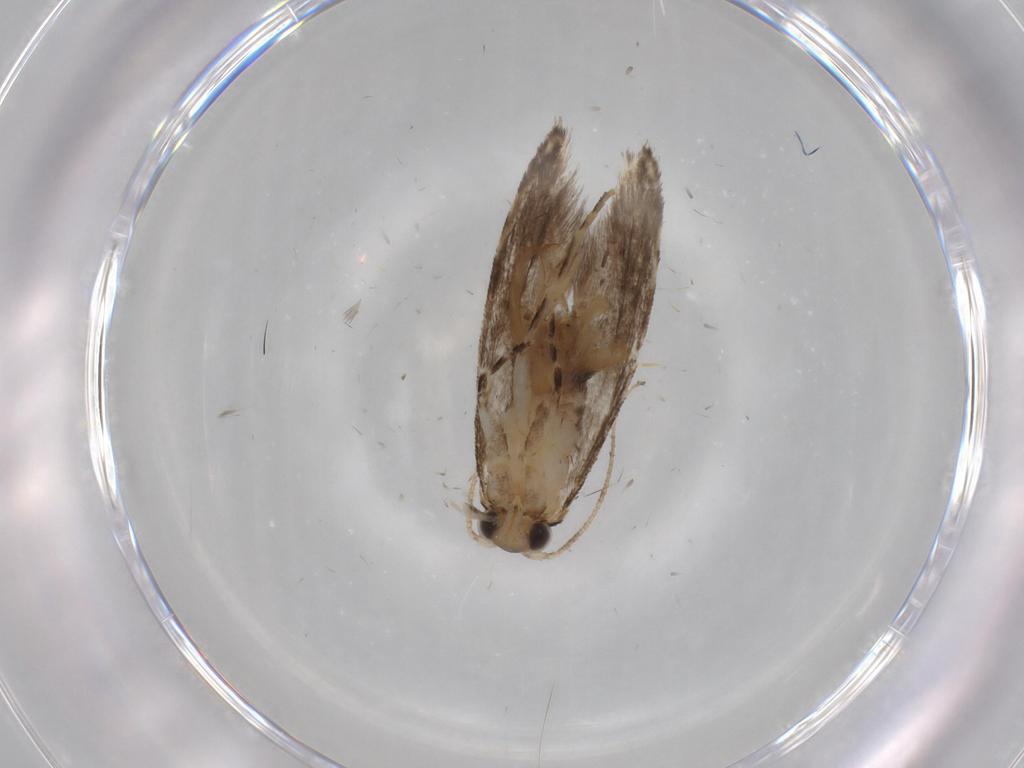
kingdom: Animalia
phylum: Arthropoda
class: Insecta
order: Lepidoptera
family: Tineidae
